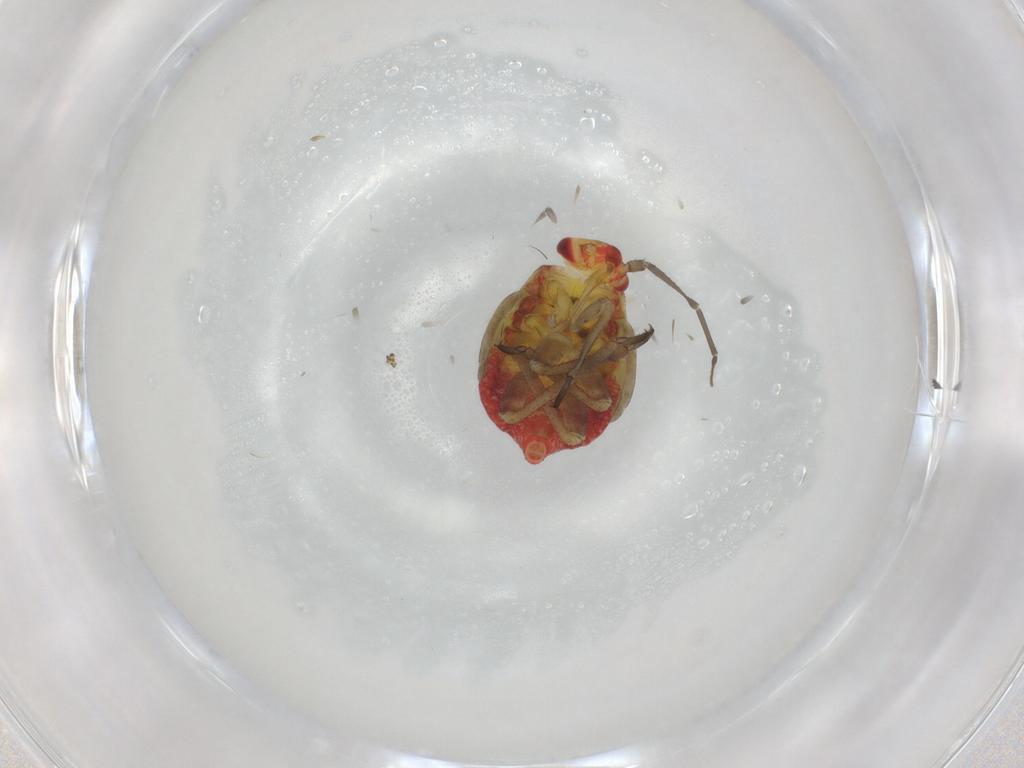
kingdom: Animalia
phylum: Arthropoda
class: Insecta
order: Hemiptera
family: Miridae
